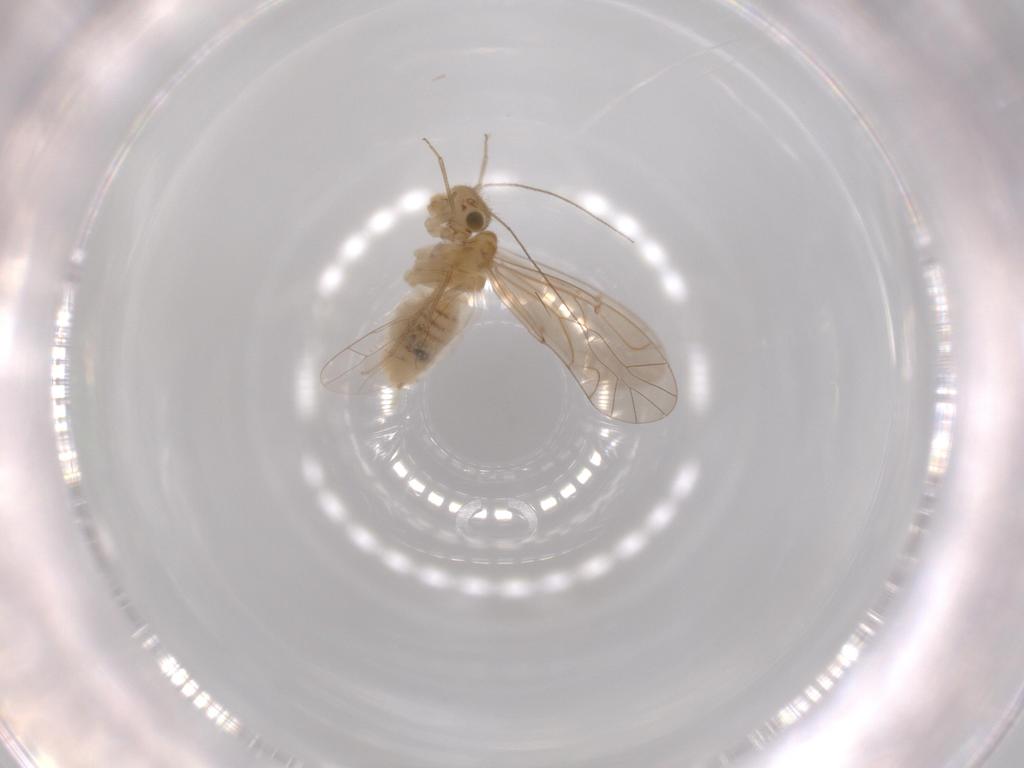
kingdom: Animalia
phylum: Arthropoda
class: Insecta
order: Psocodea
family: Lachesillidae
